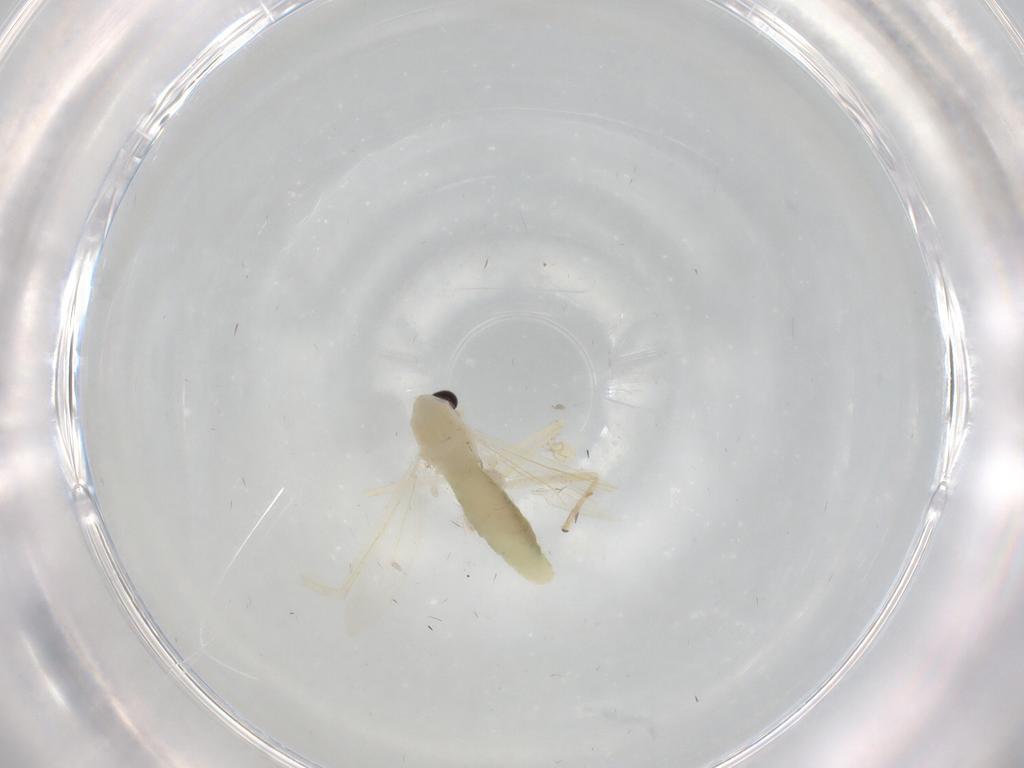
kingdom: Animalia
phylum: Arthropoda
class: Insecta
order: Diptera
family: Chironomidae
